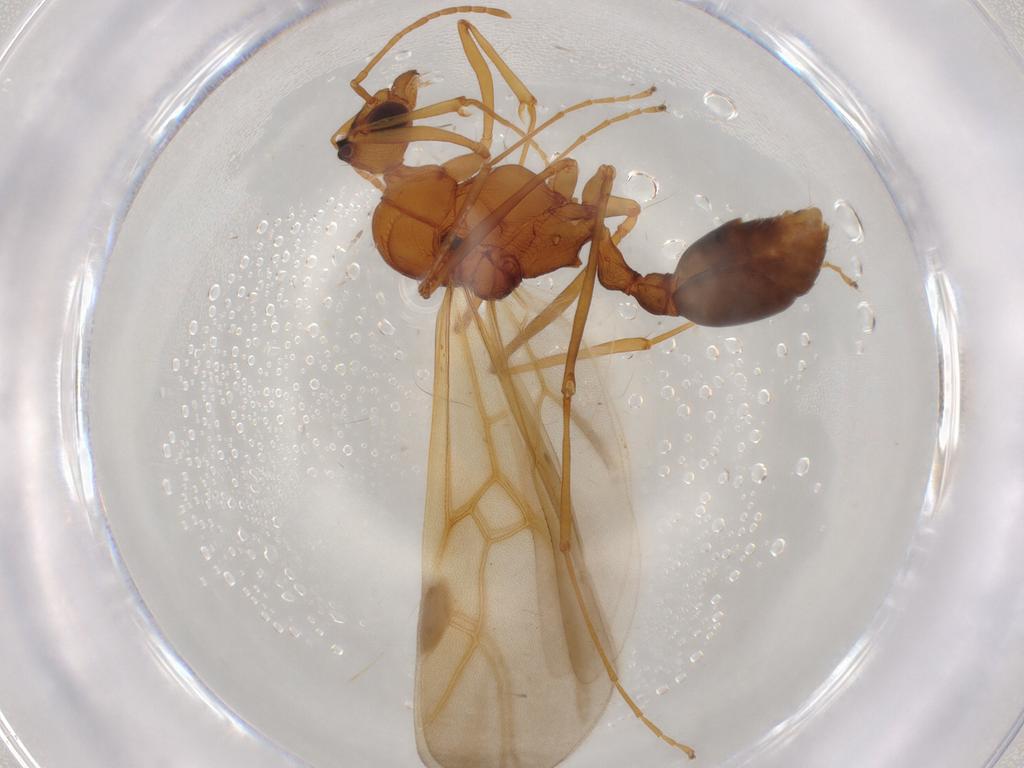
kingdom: Animalia
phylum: Arthropoda
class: Insecta
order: Hymenoptera
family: Formicidae
